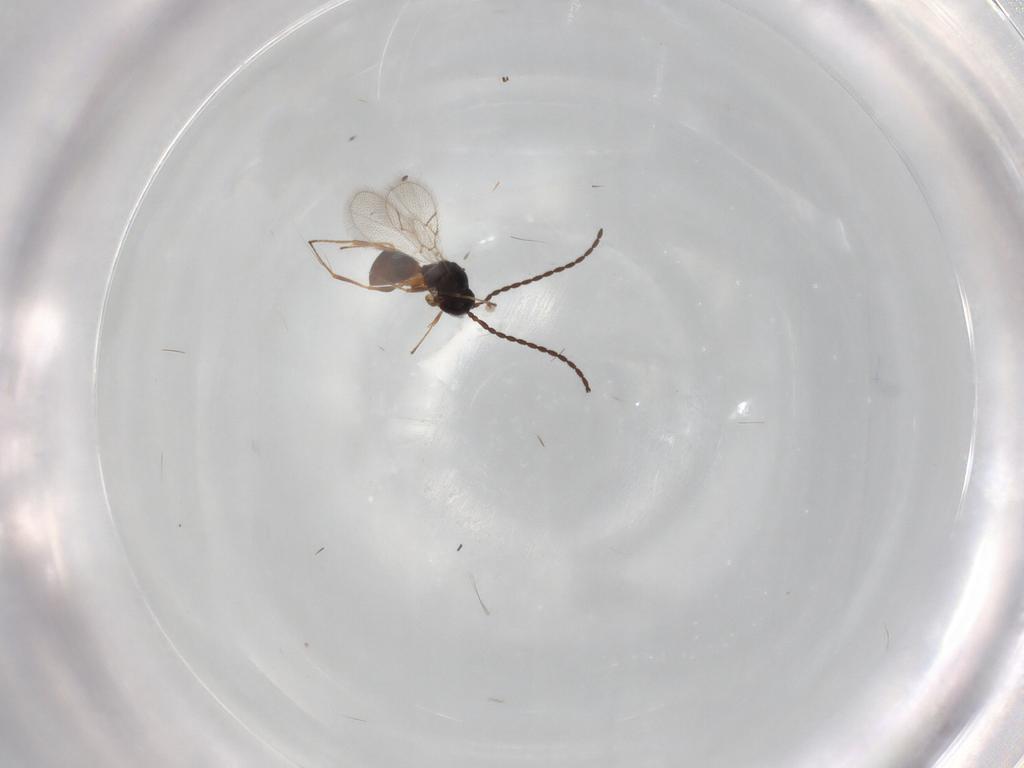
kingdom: Animalia
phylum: Arthropoda
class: Insecta
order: Hymenoptera
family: Figitidae
